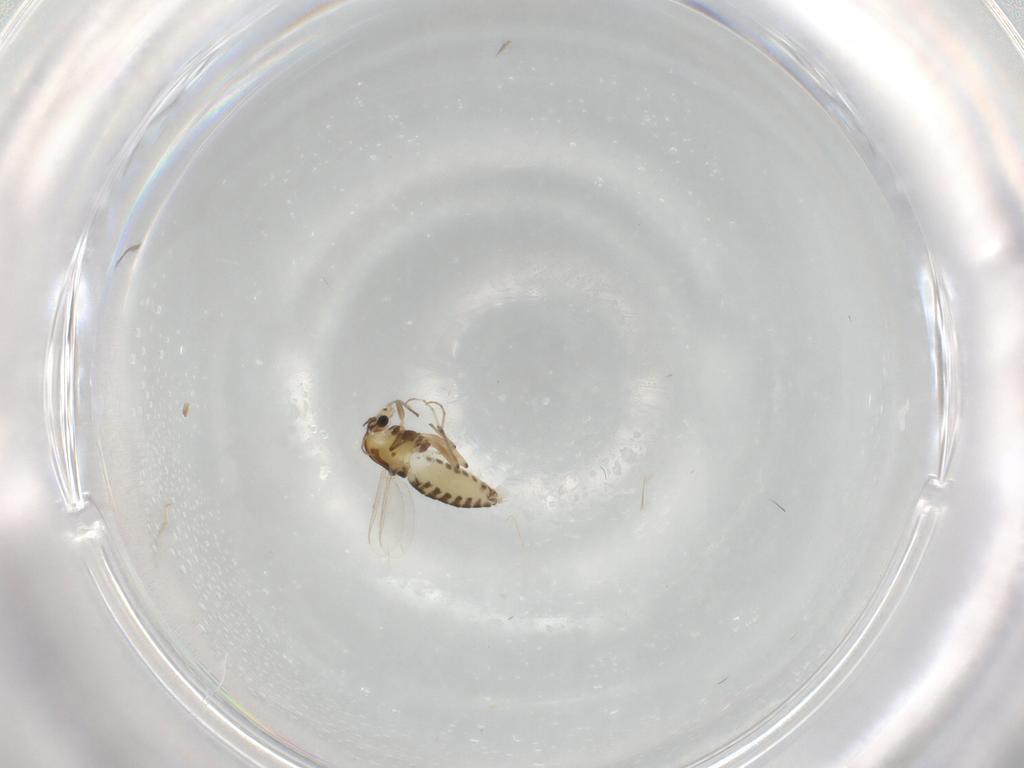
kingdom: Animalia
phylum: Arthropoda
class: Insecta
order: Diptera
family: Chironomidae
